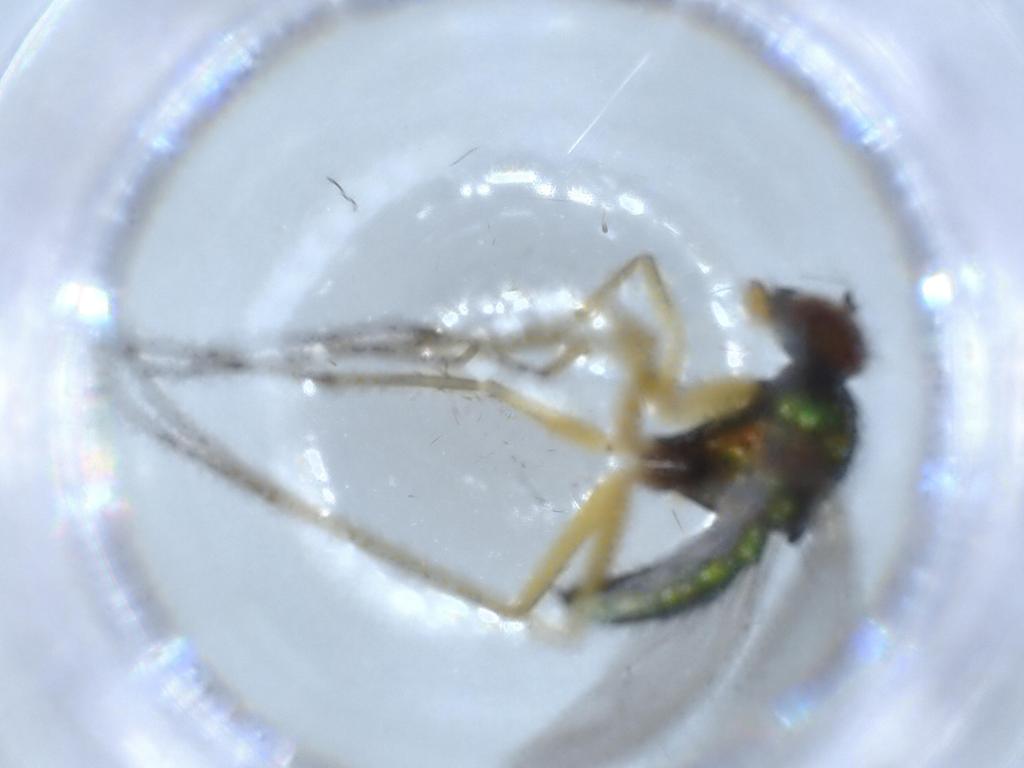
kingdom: Animalia
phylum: Arthropoda
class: Insecta
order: Diptera
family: Dolichopodidae
